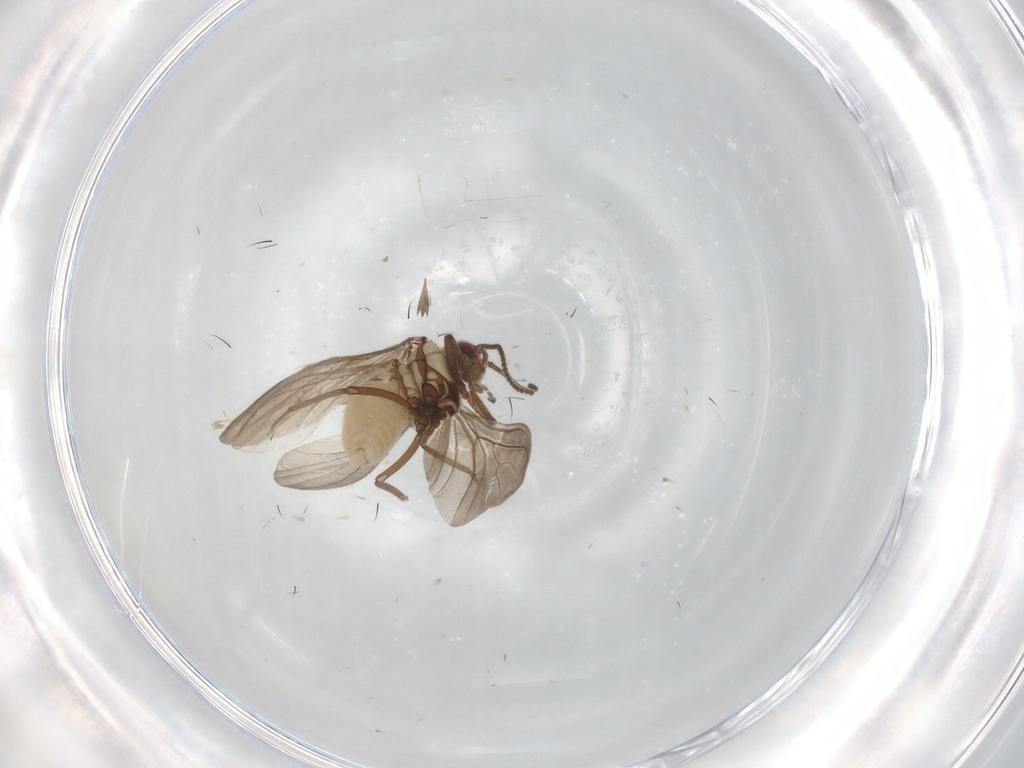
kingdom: Animalia
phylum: Arthropoda
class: Insecta
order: Neuroptera
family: Coniopterygidae
